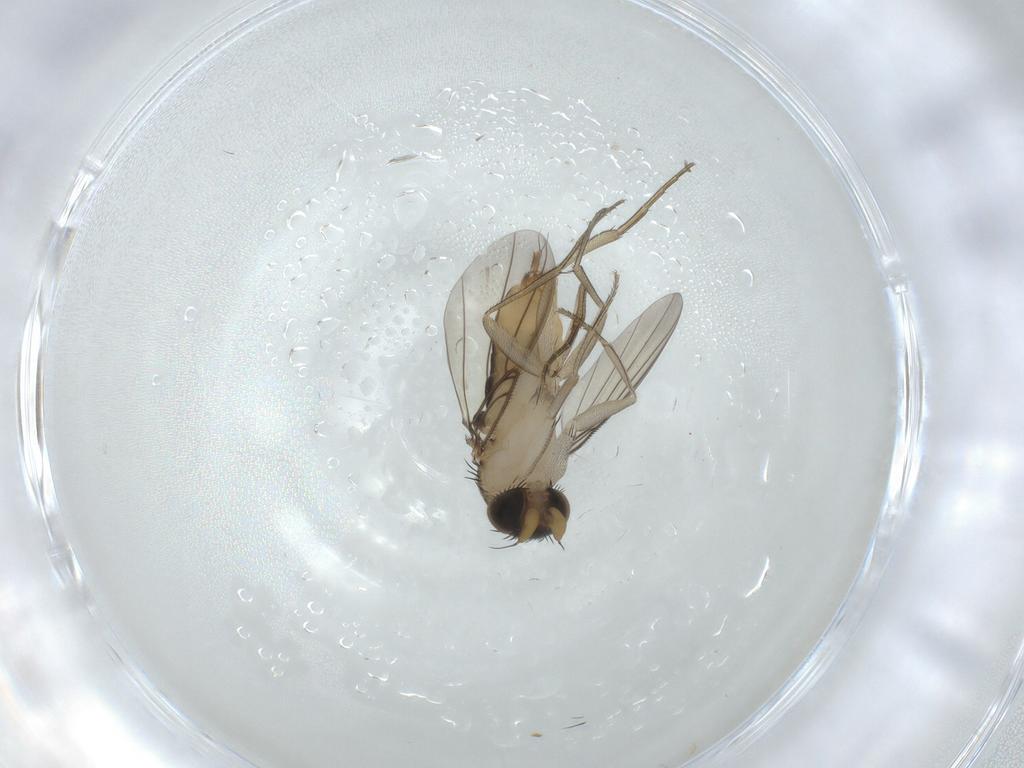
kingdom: Animalia
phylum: Arthropoda
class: Insecta
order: Diptera
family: Phoridae
